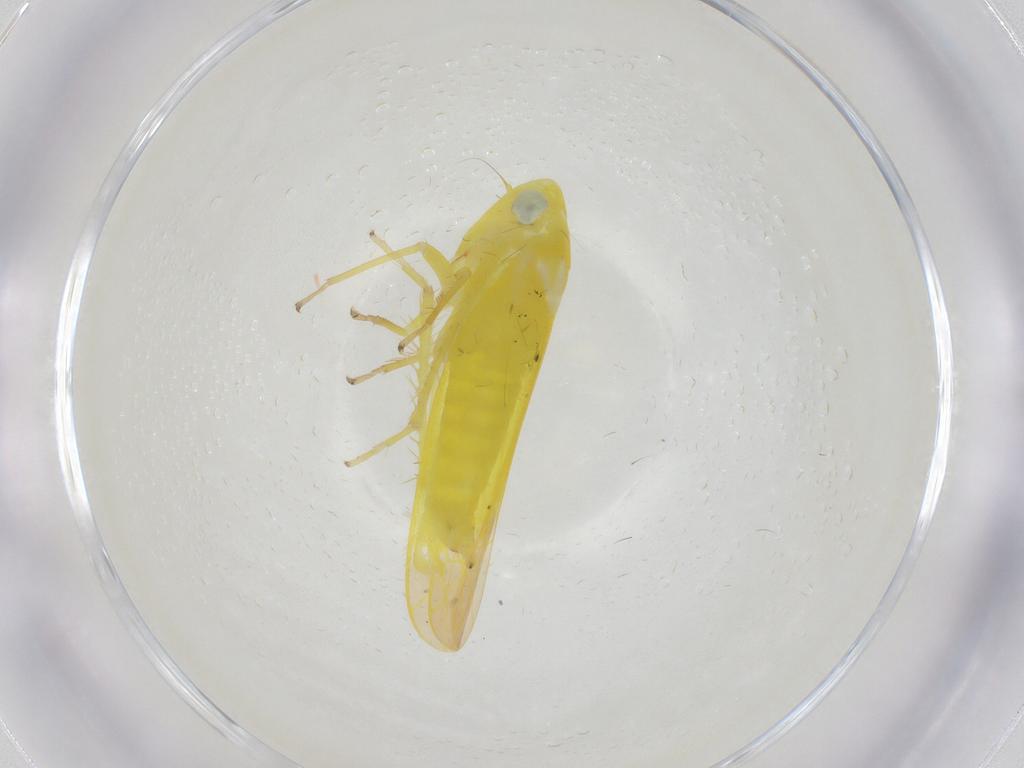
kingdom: Animalia
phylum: Arthropoda
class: Insecta
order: Hemiptera
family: Cicadellidae
